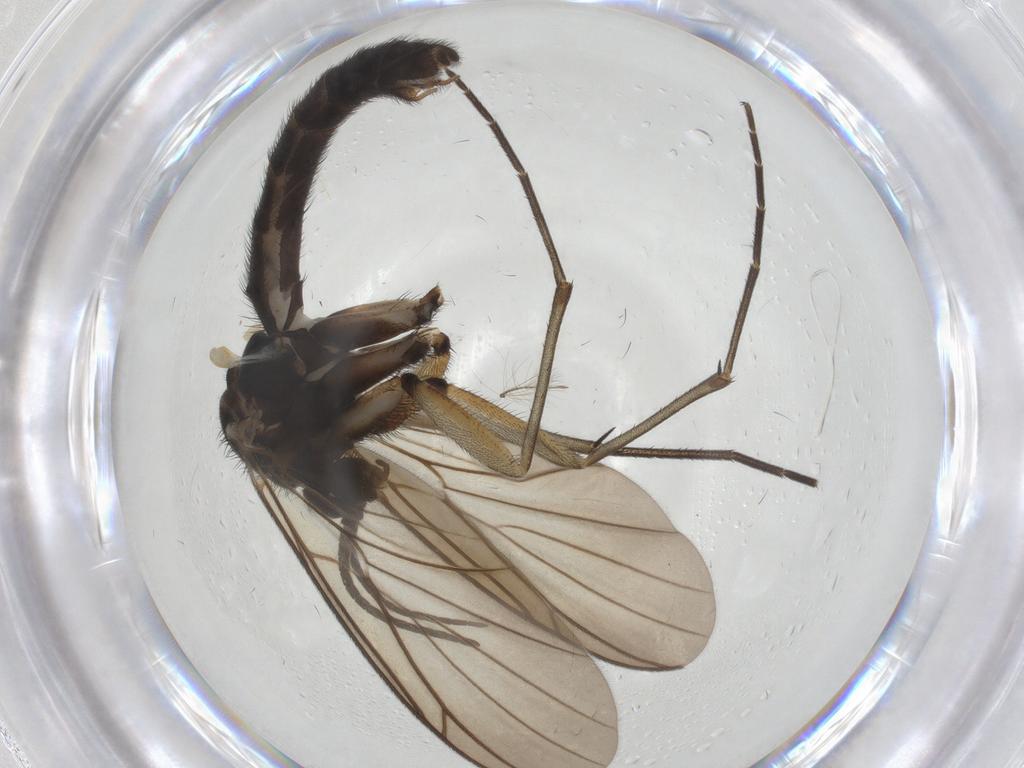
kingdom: Animalia
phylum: Arthropoda
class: Insecta
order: Diptera
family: Keroplatidae
